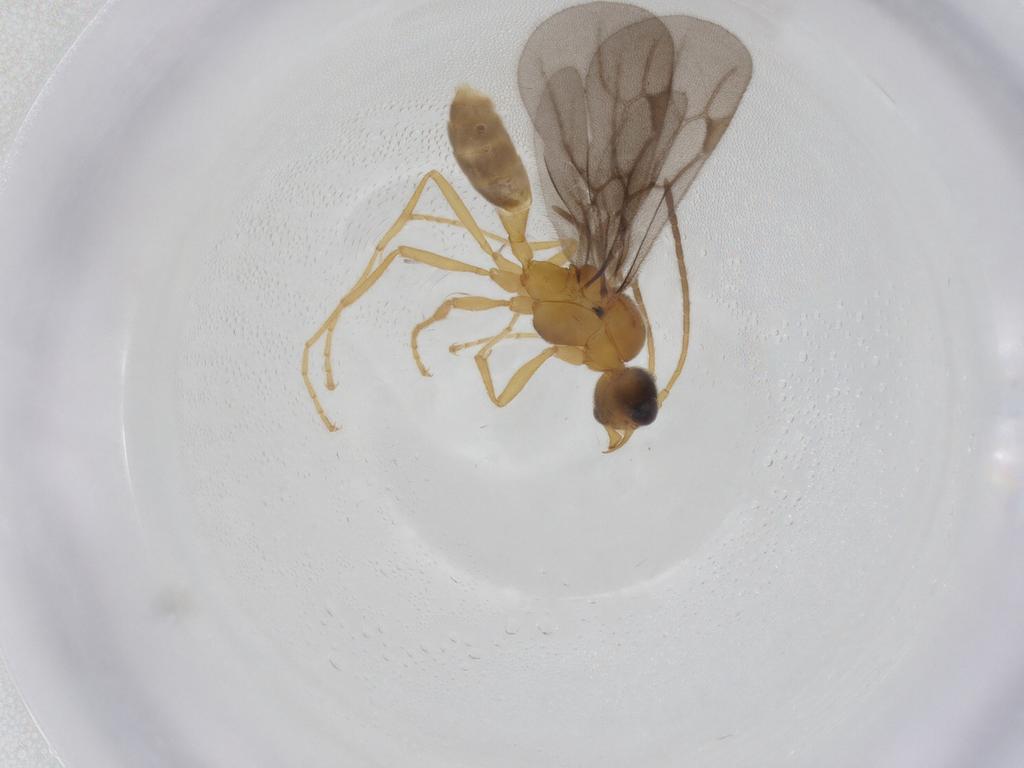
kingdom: Animalia
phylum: Arthropoda
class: Insecta
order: Hymenoptera
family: Formicidae
